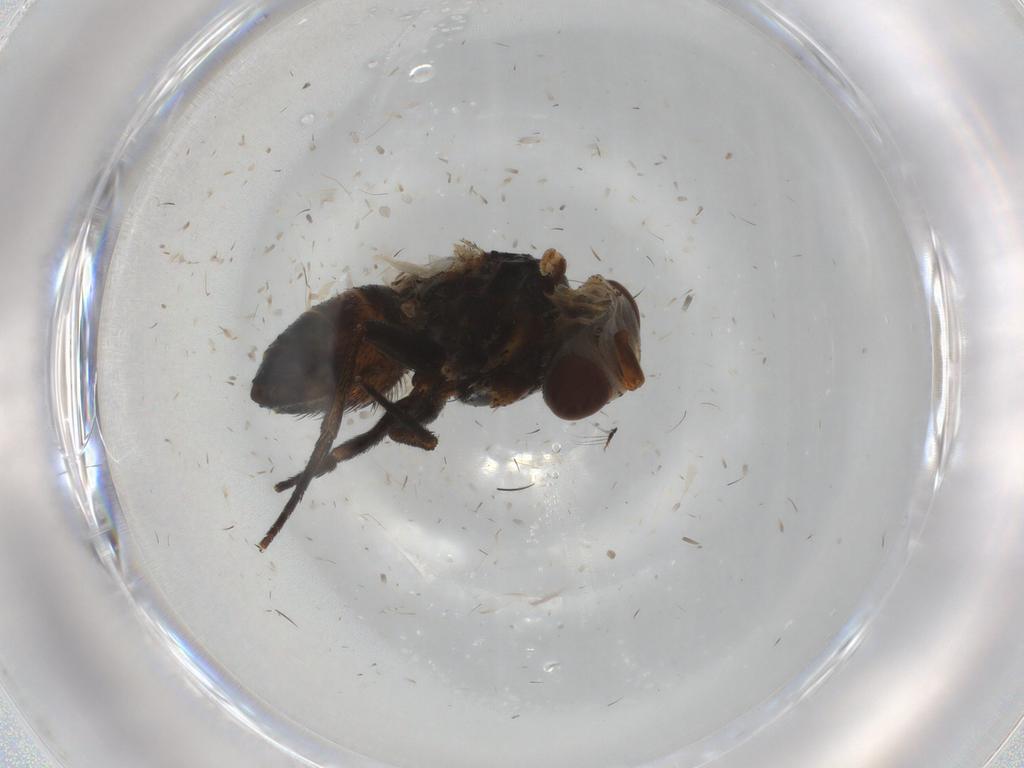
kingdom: Animalia
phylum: Arthropoda
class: Insecta
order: Diptera
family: Glossinidae
